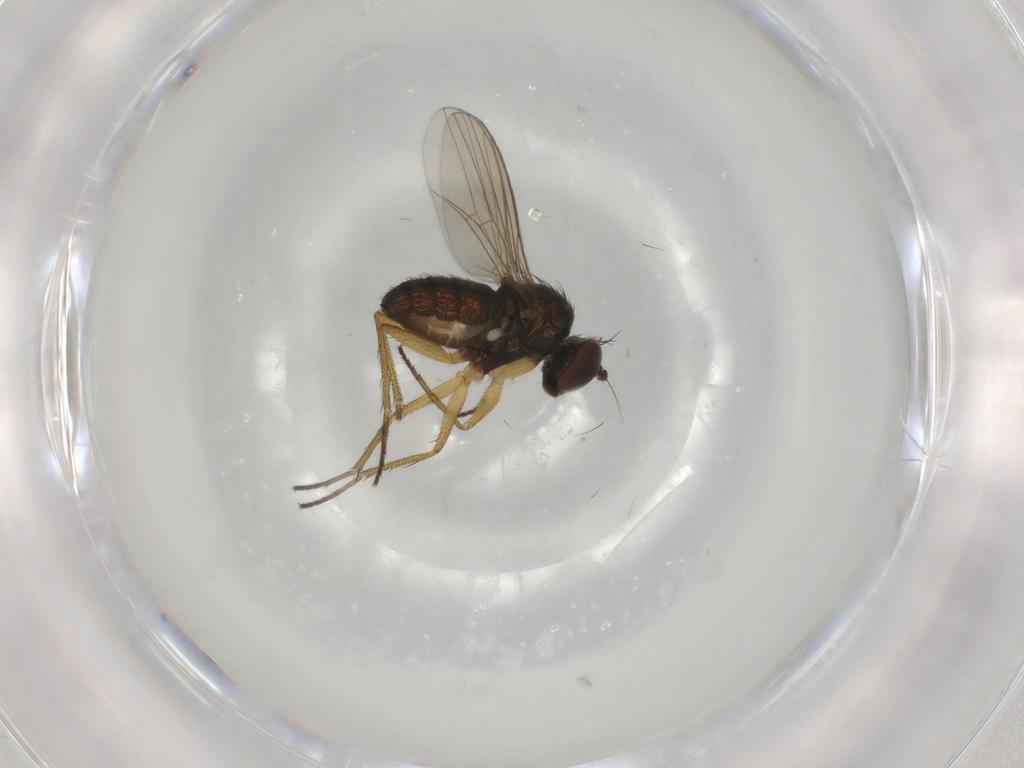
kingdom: Animalia
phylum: Arthropoda
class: Insecta
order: Diptera
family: Dolichopodidae
